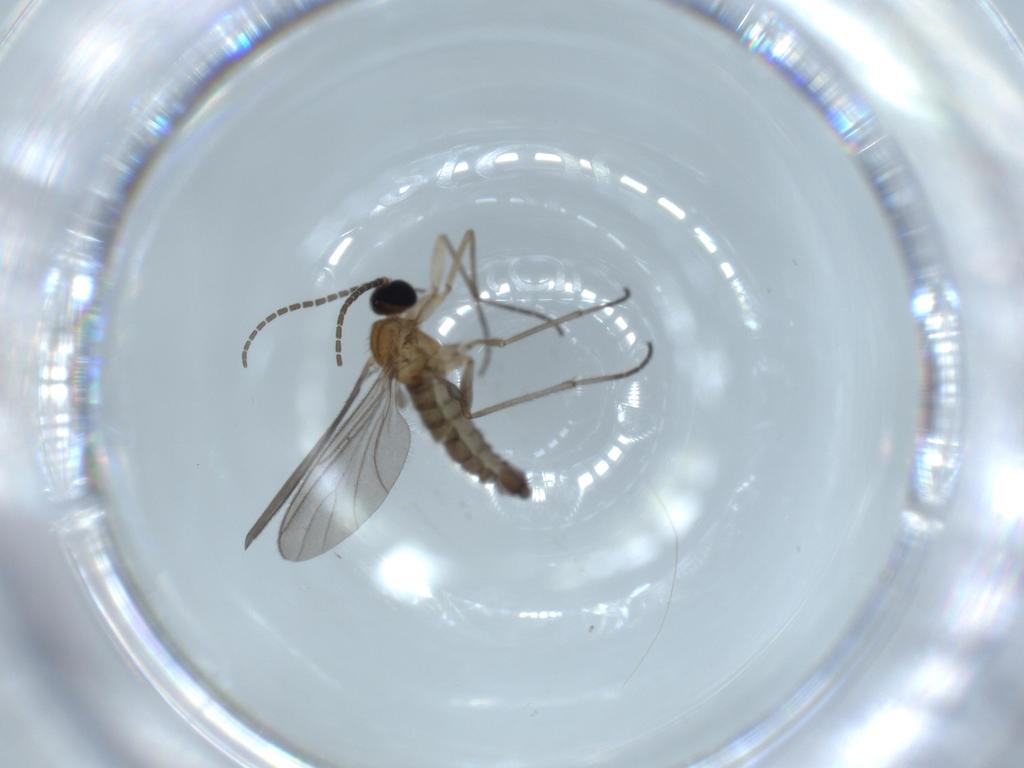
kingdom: Animalia
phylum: Arthropoda
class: Insecta
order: Diptera
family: Sciaridae
